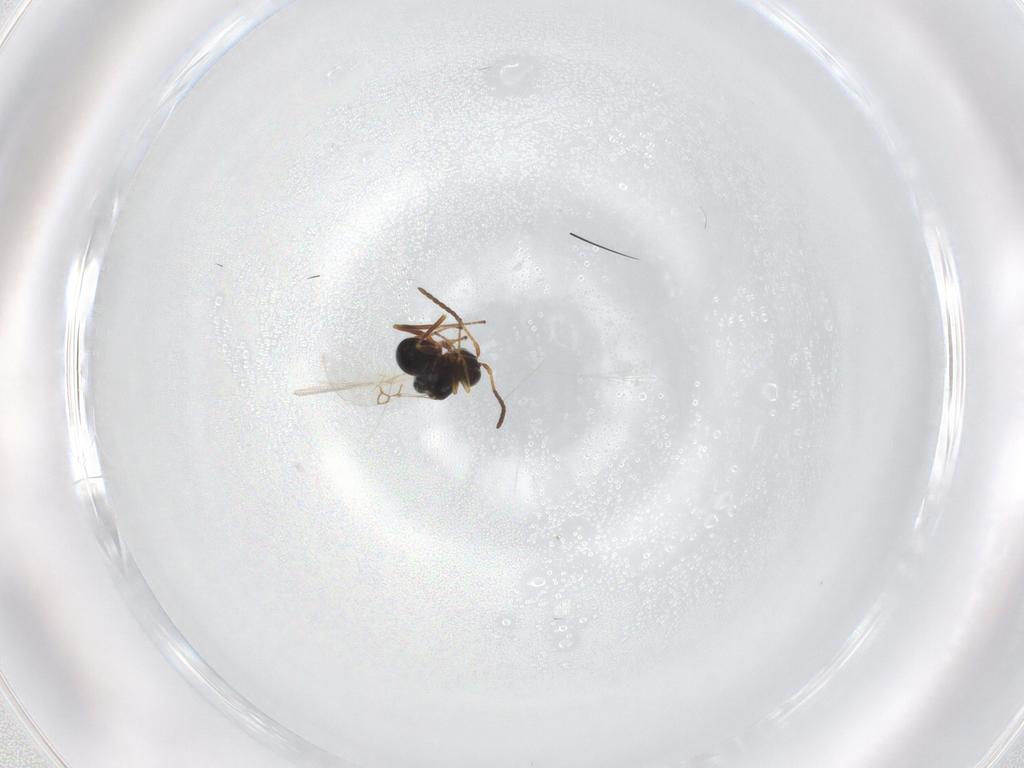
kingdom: Animalia
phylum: Arthropoda
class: Insecta
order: Hymenoptera
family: Figitidae
